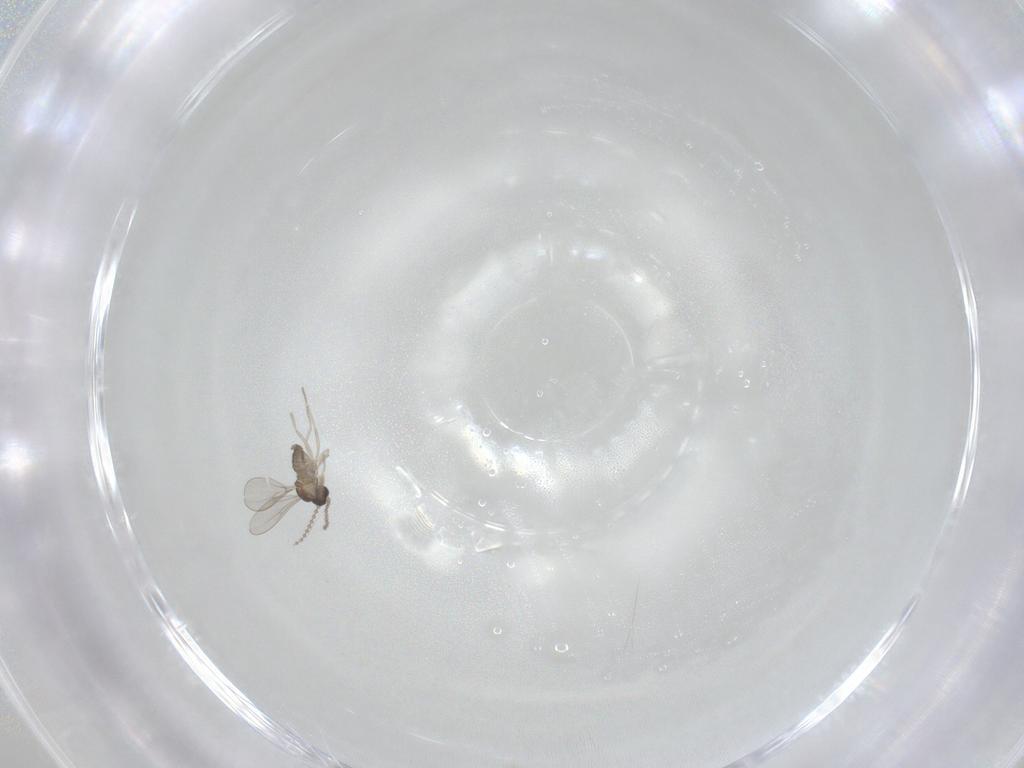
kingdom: Animalia
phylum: Arthropoda
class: Insecta
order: Diptera
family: Cecidomyiidae
